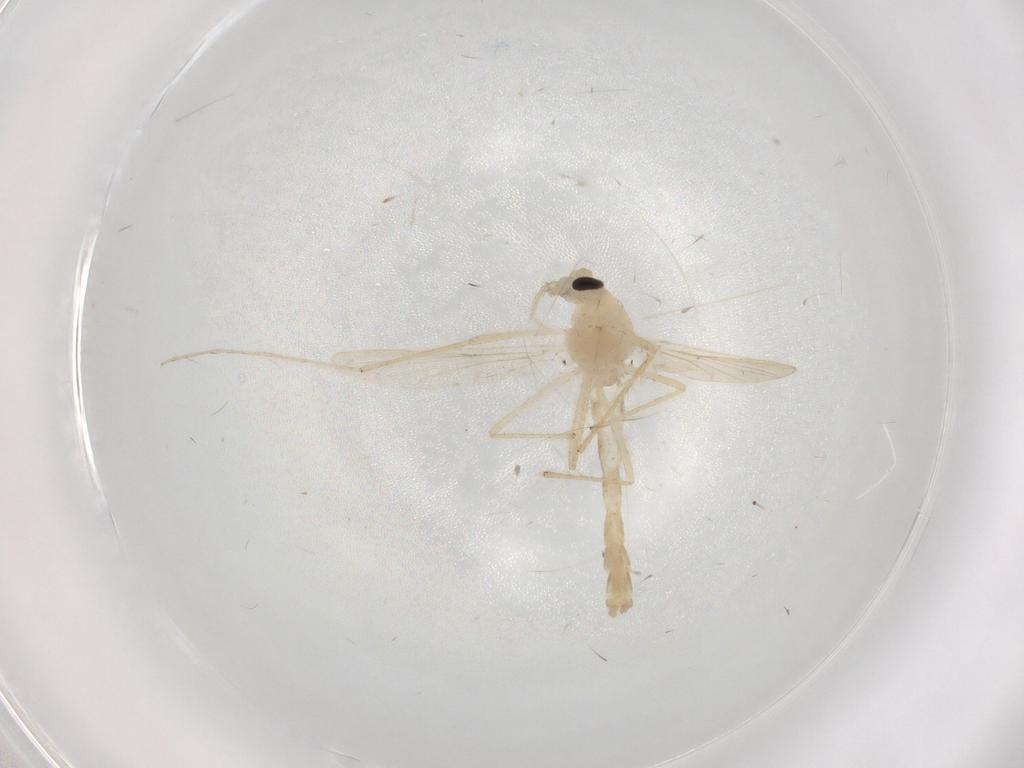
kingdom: Animalia
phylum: Arthropoda
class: Insecta
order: Diptera
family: Chironomidae
